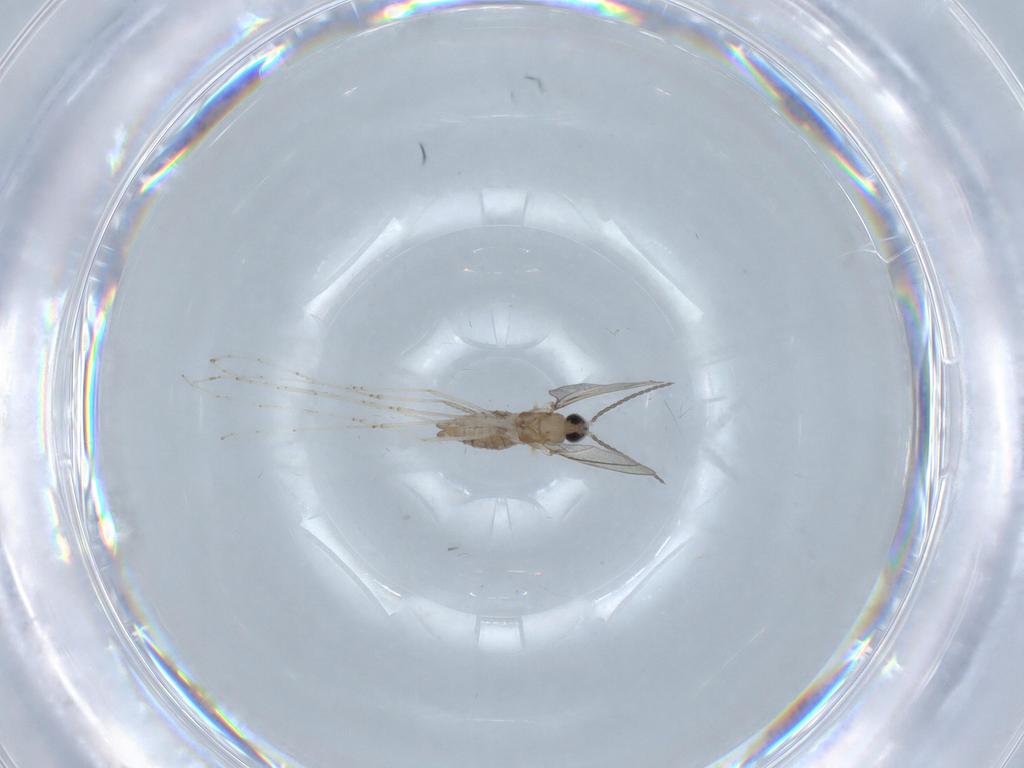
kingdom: Animalia
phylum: Arthropoda
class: Insecta
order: Diptera
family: Cecidomyiidae
